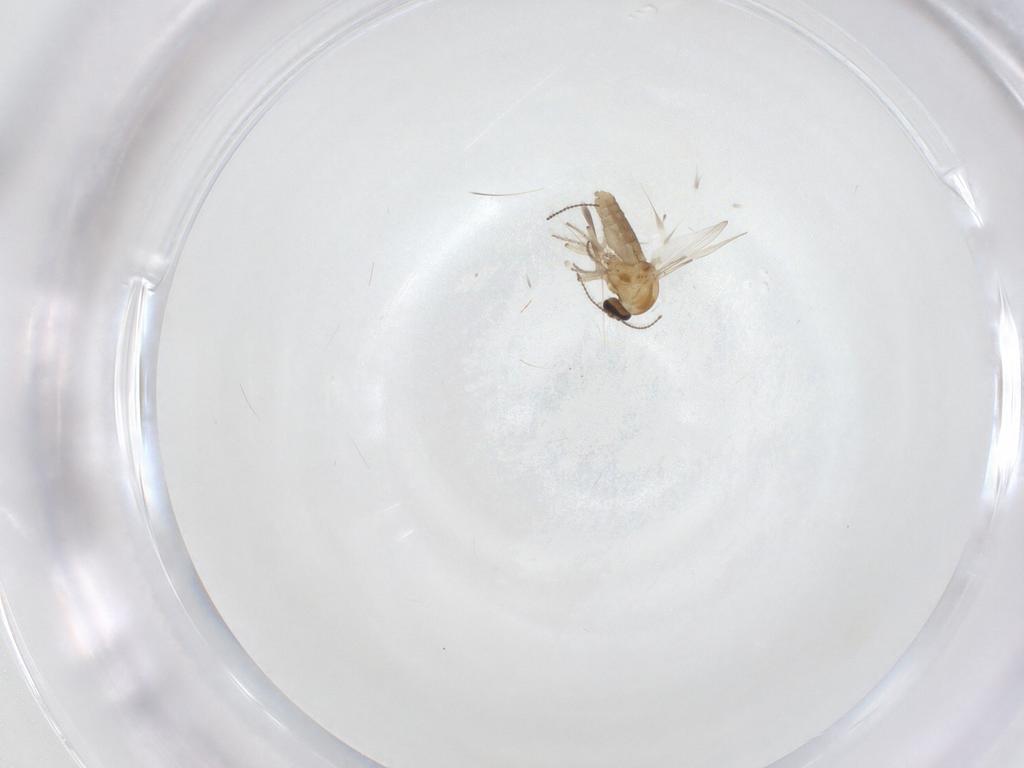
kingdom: Animalia
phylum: Arthropoda
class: Insecta
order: Diptera
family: Ceratopogonidae
